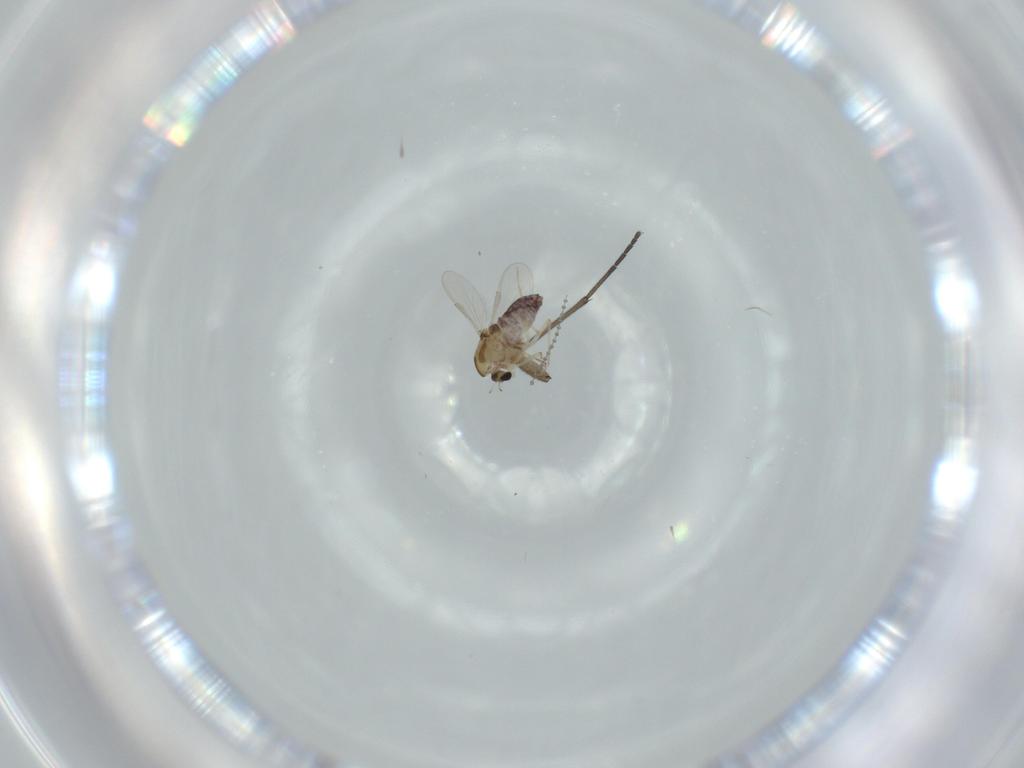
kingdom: Animalia
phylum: Arthropoda
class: Insecta
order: Diptera
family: Chironomidae
